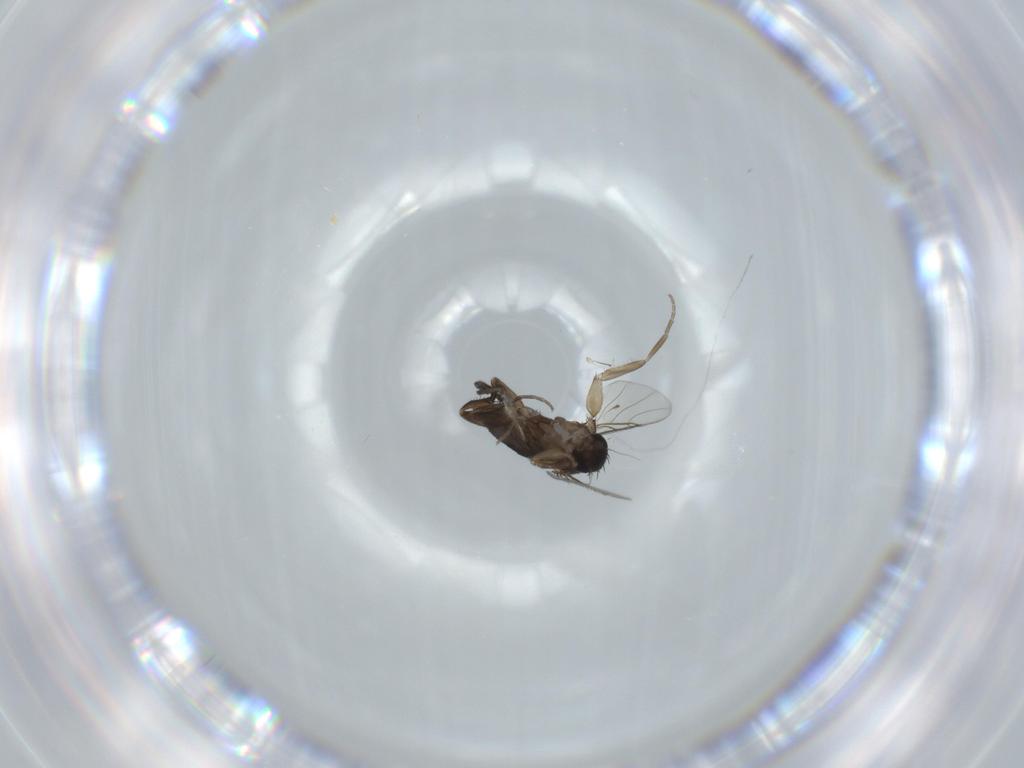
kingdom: Animalia
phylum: Arthropoda
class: Insecta
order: Diptera
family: Phoridae
